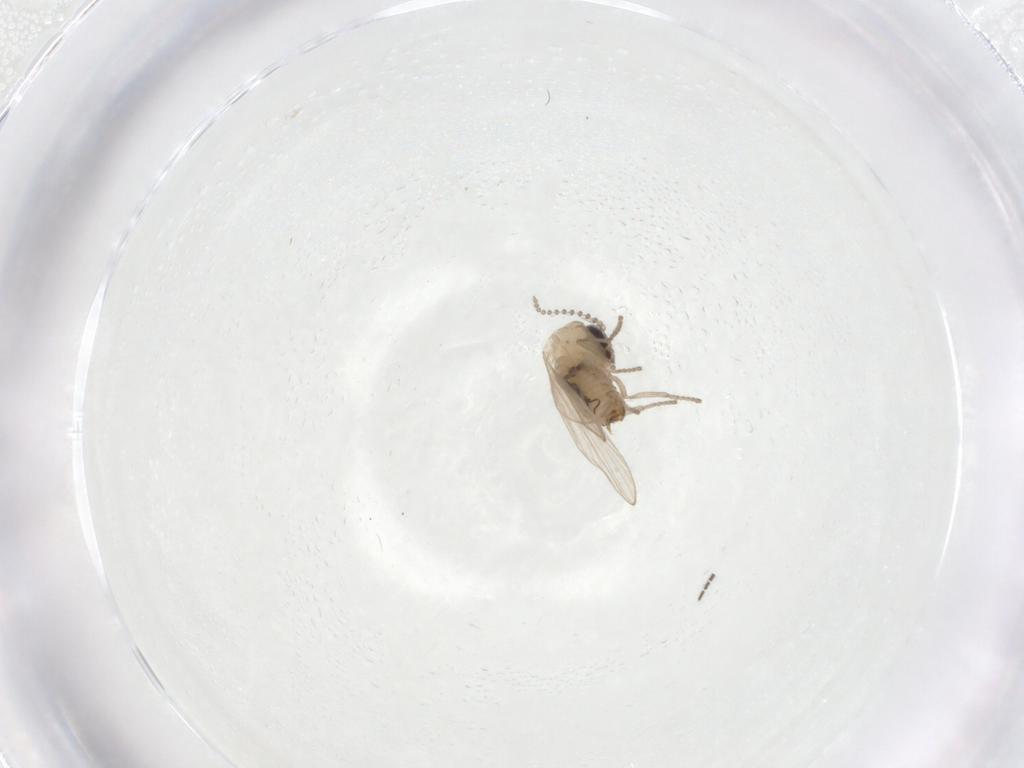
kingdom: Animalia
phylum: Arthropoda
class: Insecta
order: Diptera
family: Psychodidae
